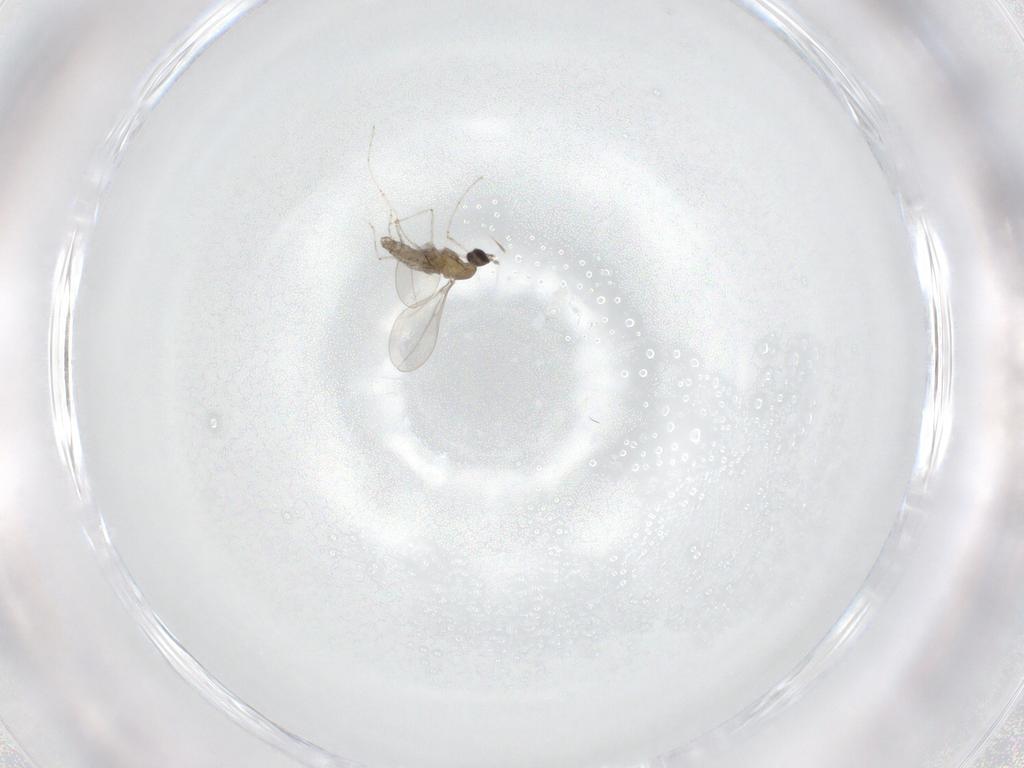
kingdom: Animalia
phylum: Arthropoda
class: Insecta
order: Diptera
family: Cecidomyiidae
